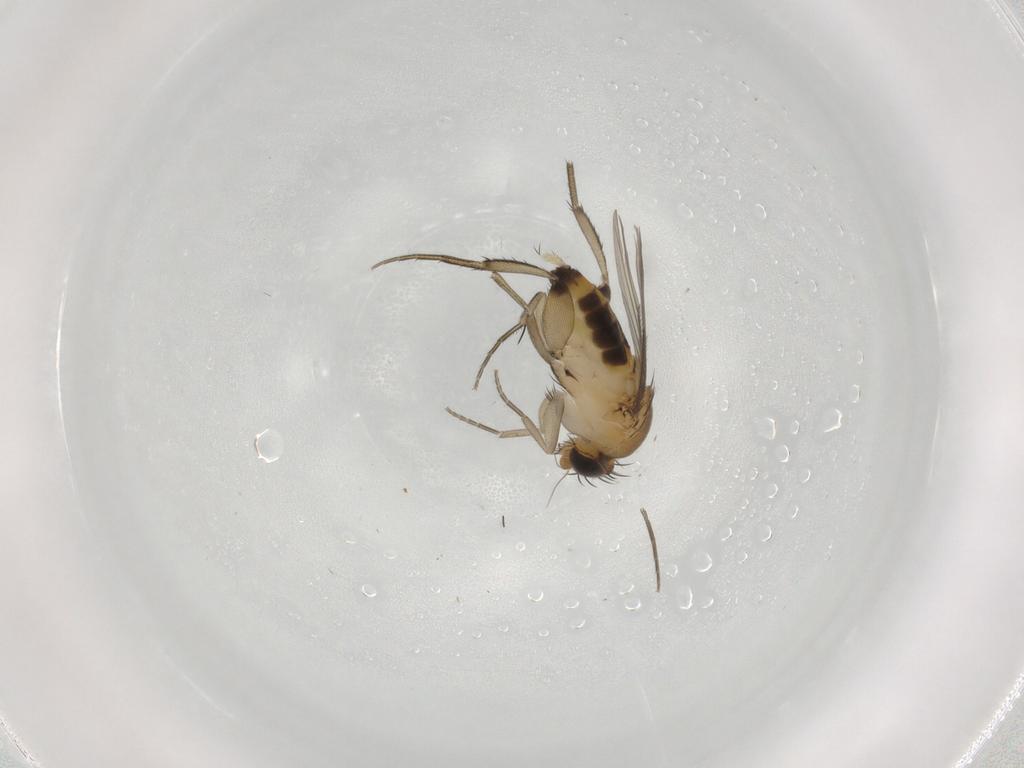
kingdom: Animalia
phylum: Arthropoda
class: Insecta
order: Diptera
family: Phoridae
